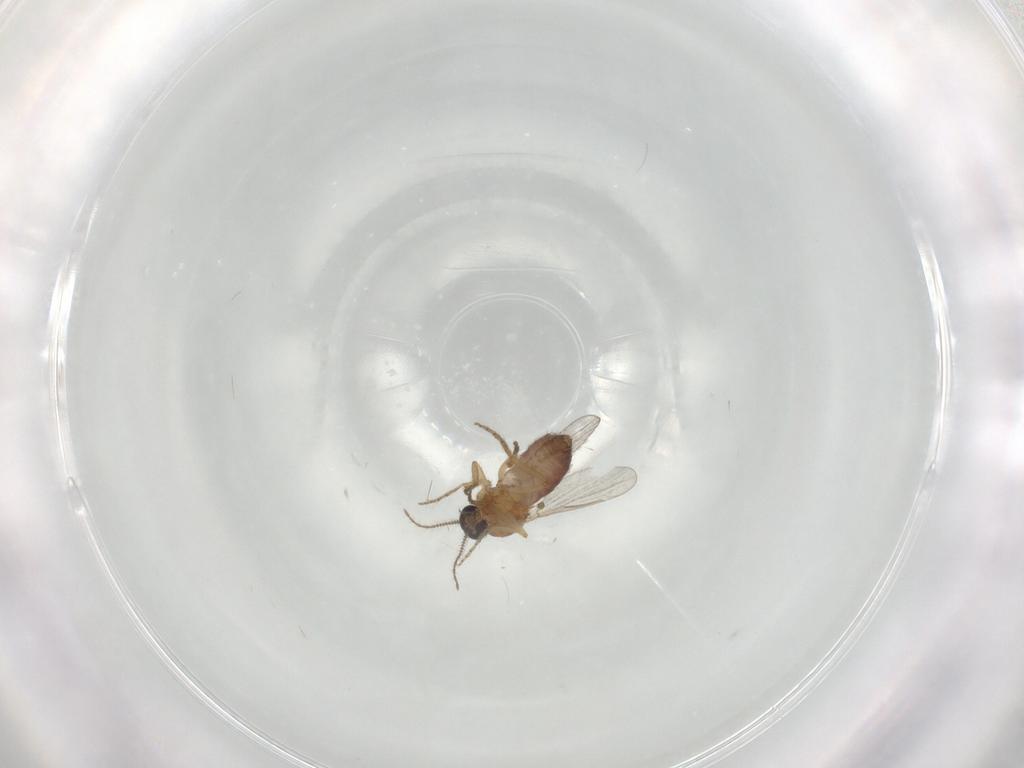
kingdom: Animalia
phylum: Arthropoda
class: Insecta
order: Diptera
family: Ceratopogonidae
